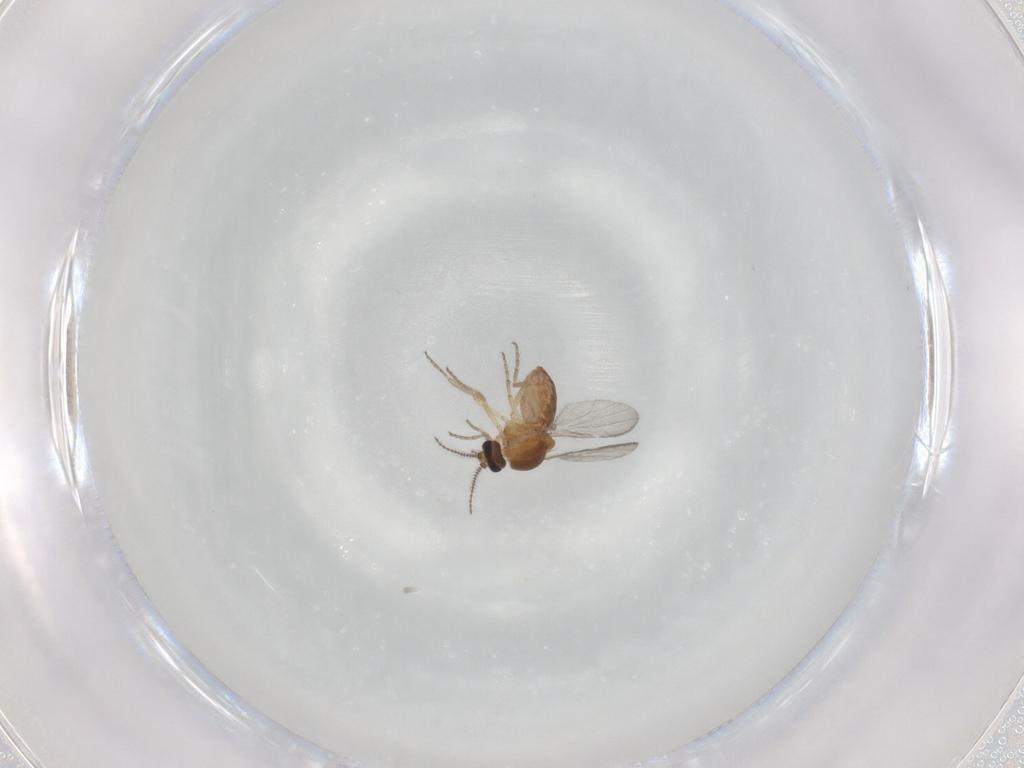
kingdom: Animalia
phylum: Arthropoda
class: Insecta
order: Diptera
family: Ceratopogonidae
